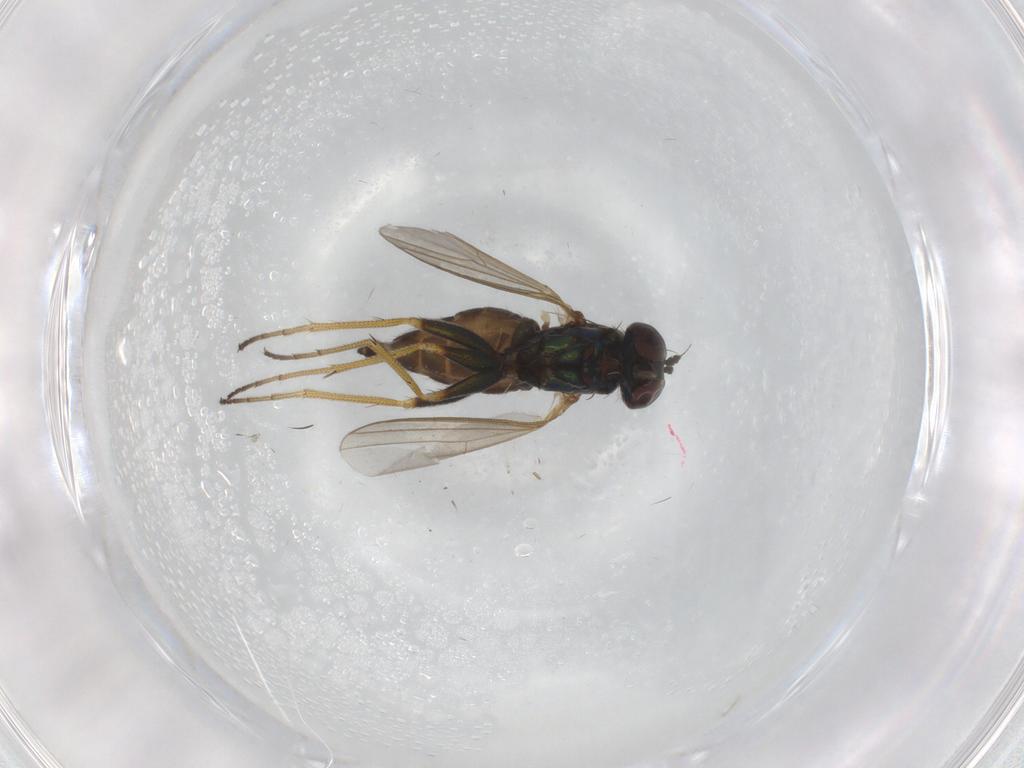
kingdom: Animalia
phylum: Arthropoda
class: Insecta
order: Diptera
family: Dolichopodidae
